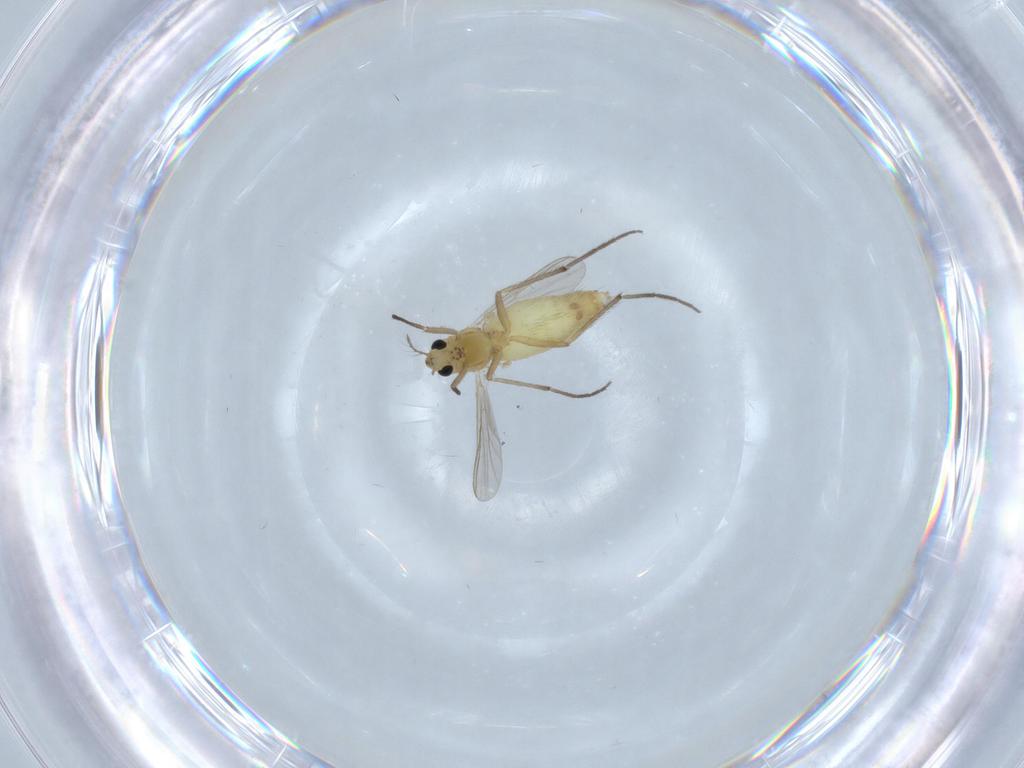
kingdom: Animalia
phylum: Arthropoda
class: Insecta
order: Diptera
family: Chironomidae
